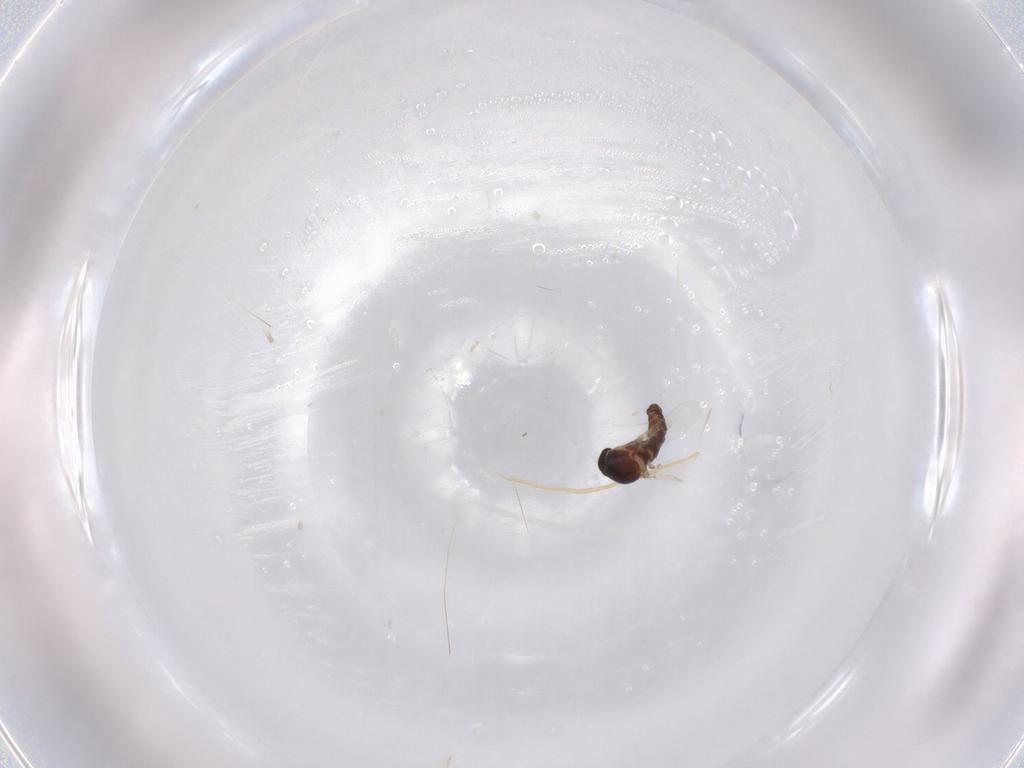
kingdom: Animalia
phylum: Arthropoda
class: Insecta
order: Diptera
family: Ceratopogonidae
